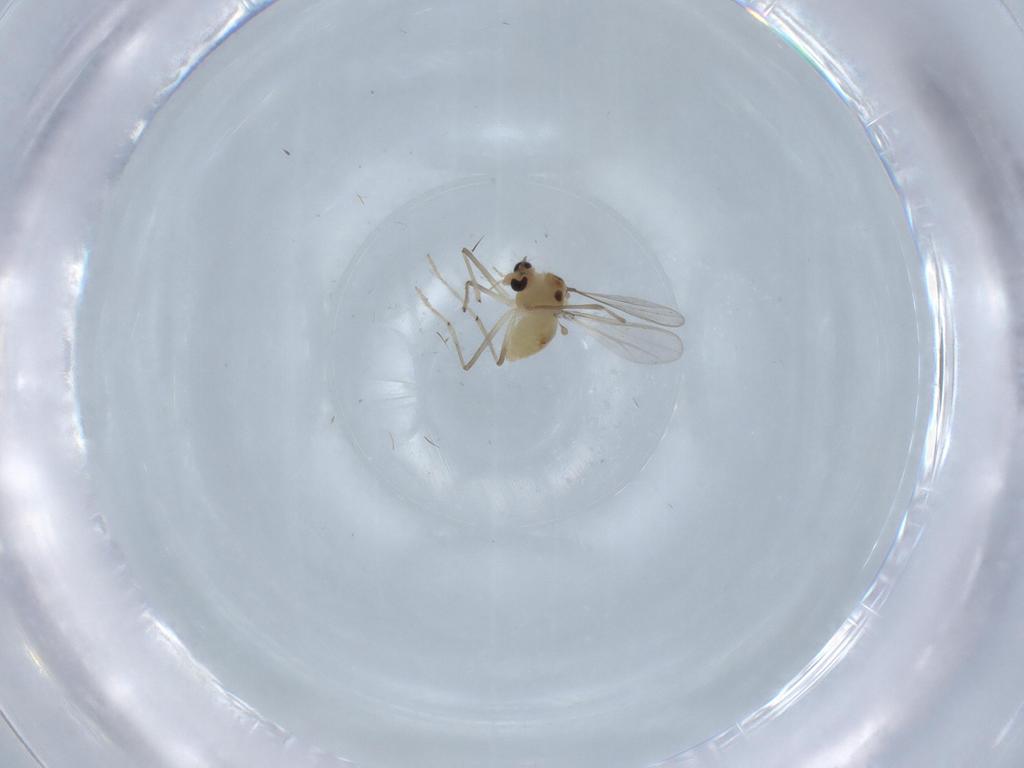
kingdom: Animalia
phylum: Arthropoda
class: Insecta
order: Diptera
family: Chironomidae
